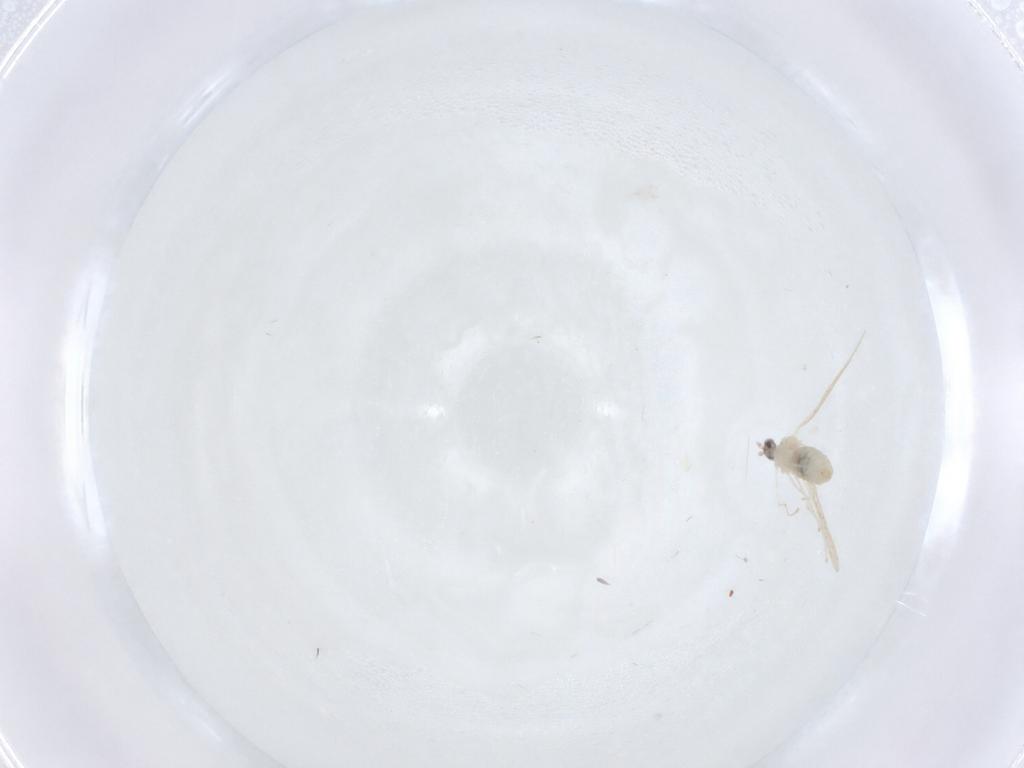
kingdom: Animalia
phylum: Arthropoda
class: Insecta
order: Diptera
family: Cecidomyiidae
